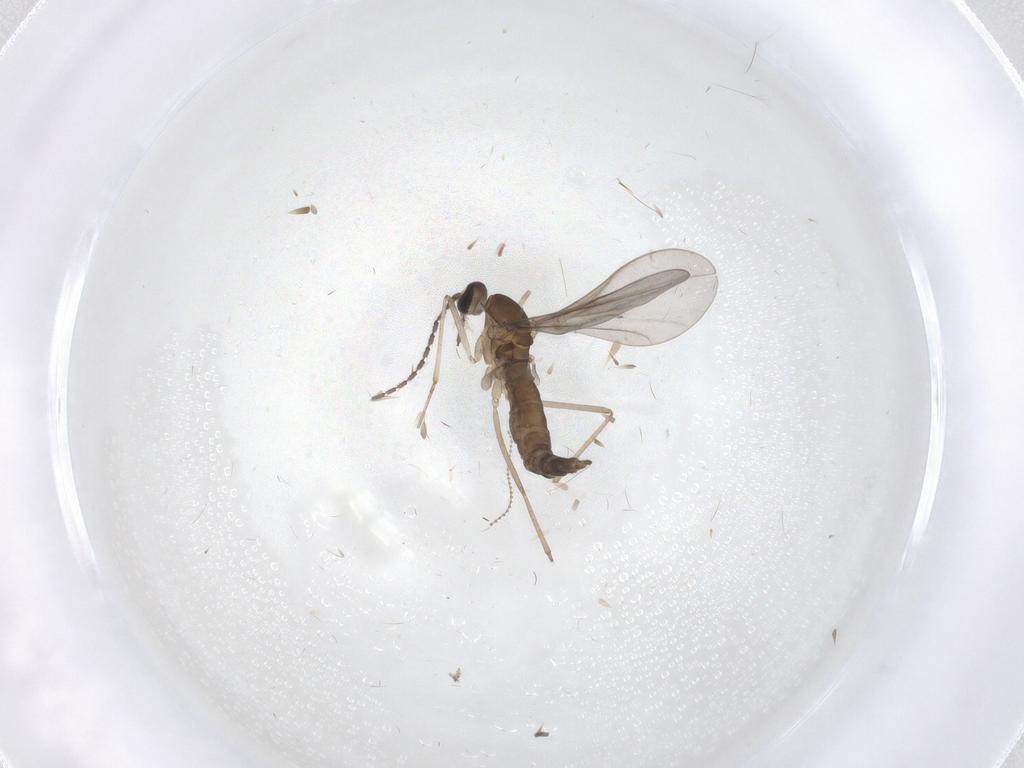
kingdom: Animalia
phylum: Arthropoda
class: Insecta
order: Diptera
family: Cecidomyiidae
